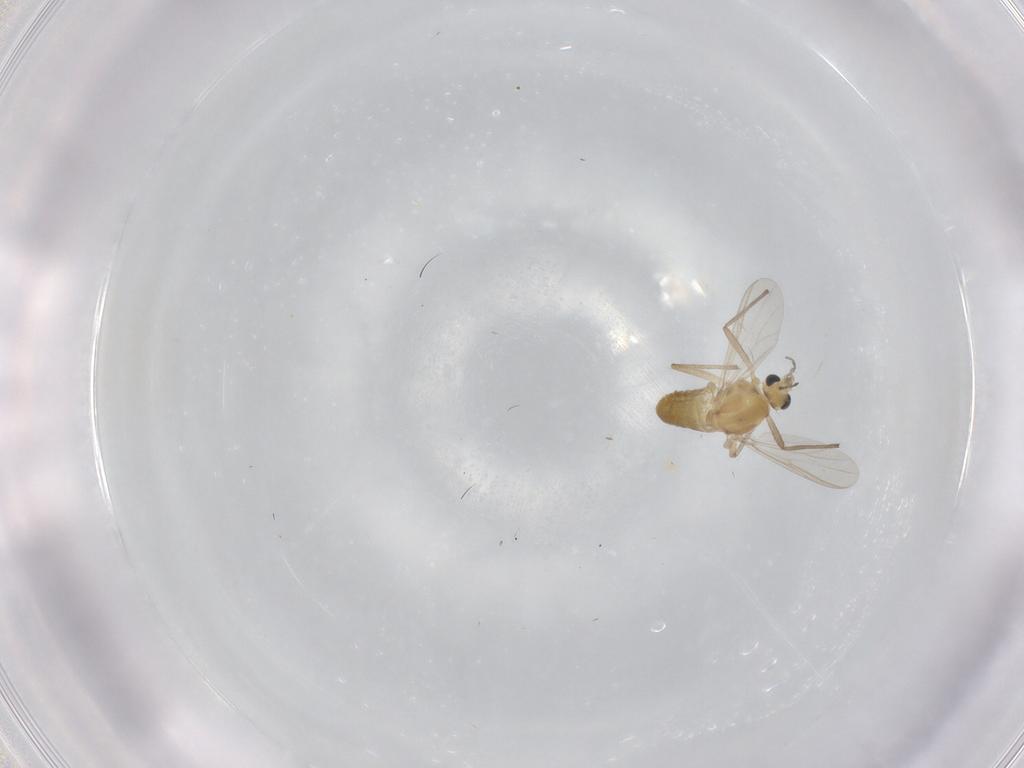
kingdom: Animalia
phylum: Arthropoda
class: Insecta
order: Diptera
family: Chironomidae
